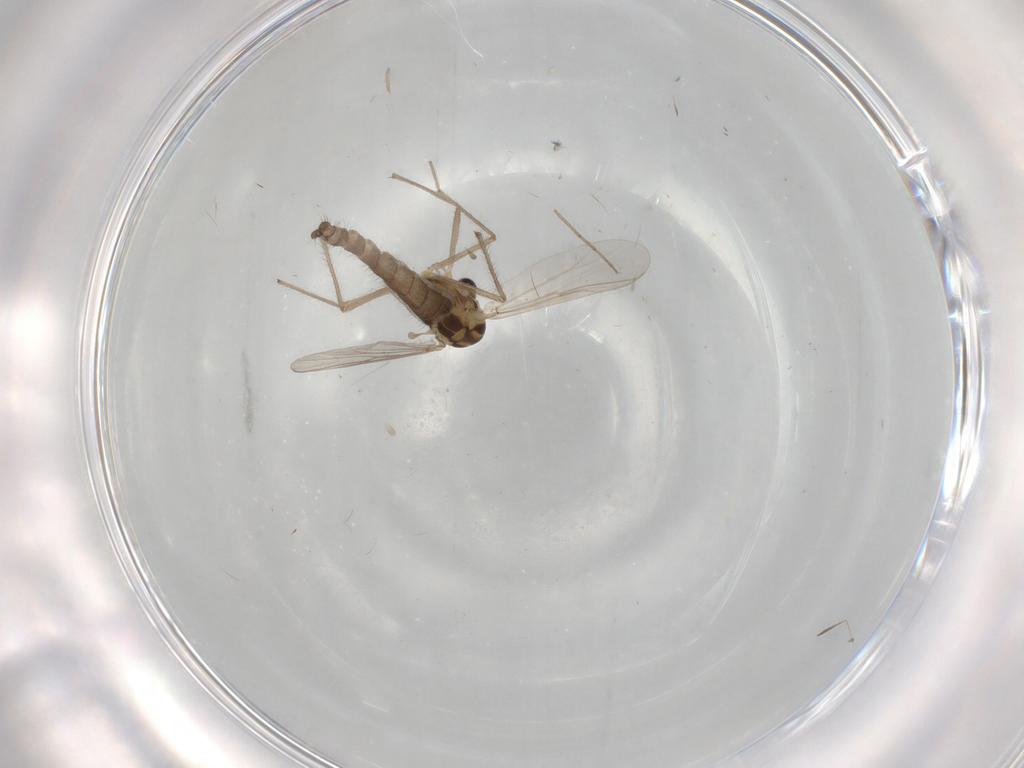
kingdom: Animalia
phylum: Arthropoda
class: Insecta
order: Diptera
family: Chironomidae
